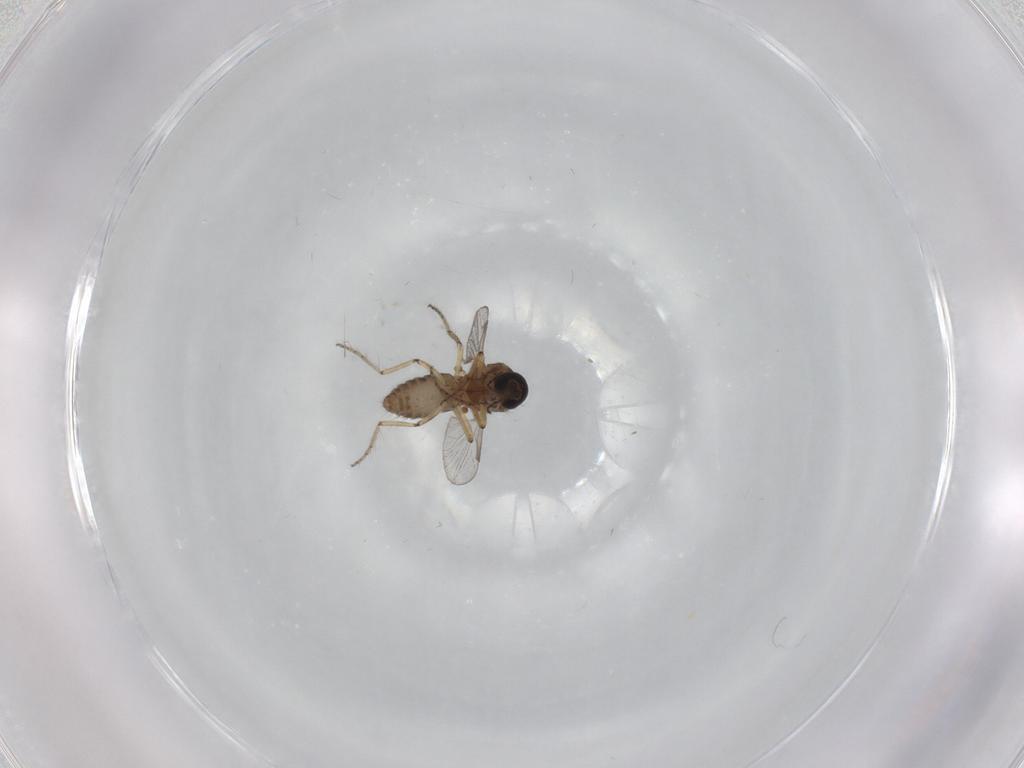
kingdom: Animalia
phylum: Arthropoda
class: Insecta
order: Diptera
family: Ceratopogonidae
